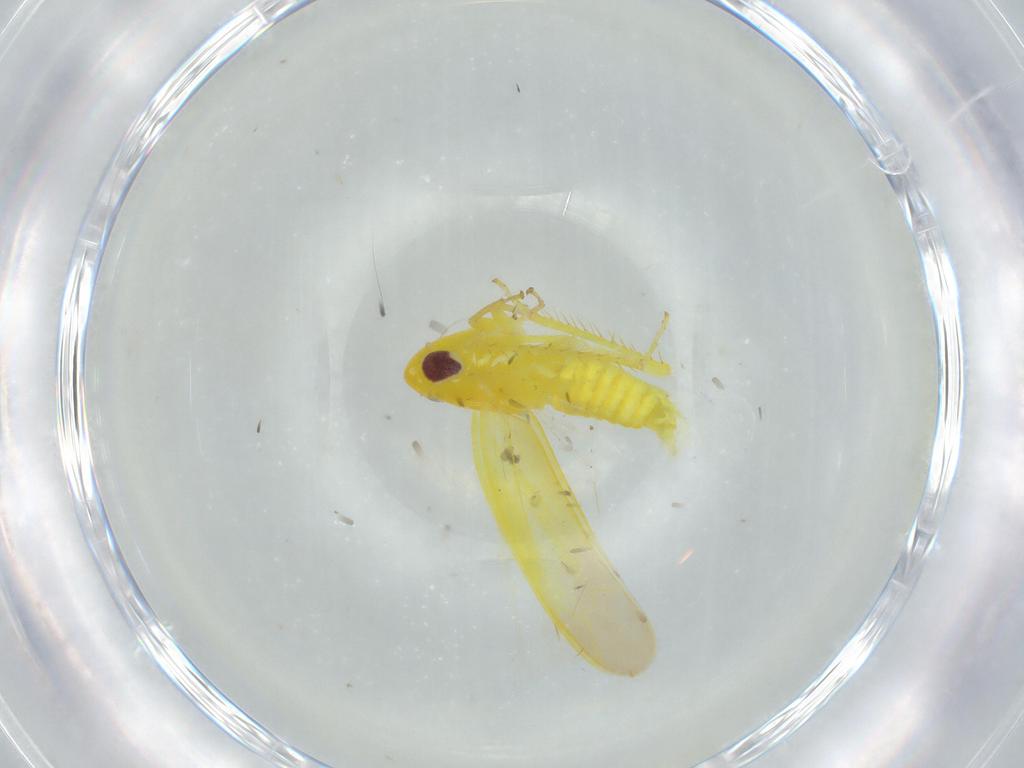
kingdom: Animalia
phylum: Arthropoda
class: Insecta
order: Hemiptera
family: Cicadellidae
